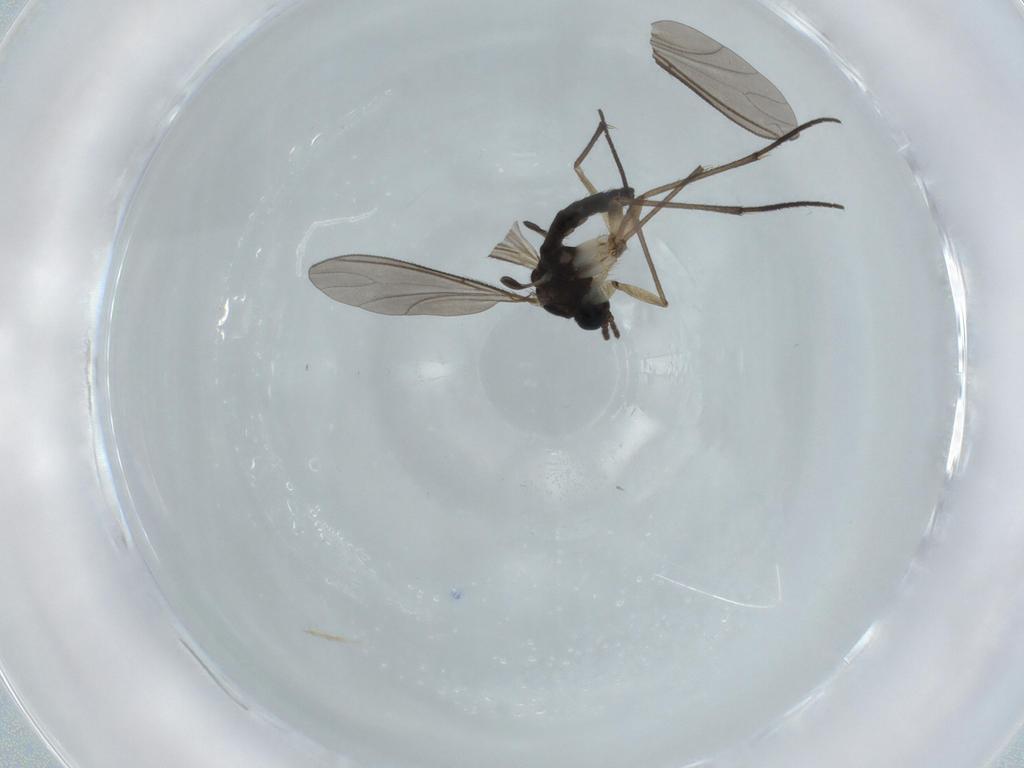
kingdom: Animalia
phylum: Arthropoda
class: Insecta
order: Diptera
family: Sciaridae
